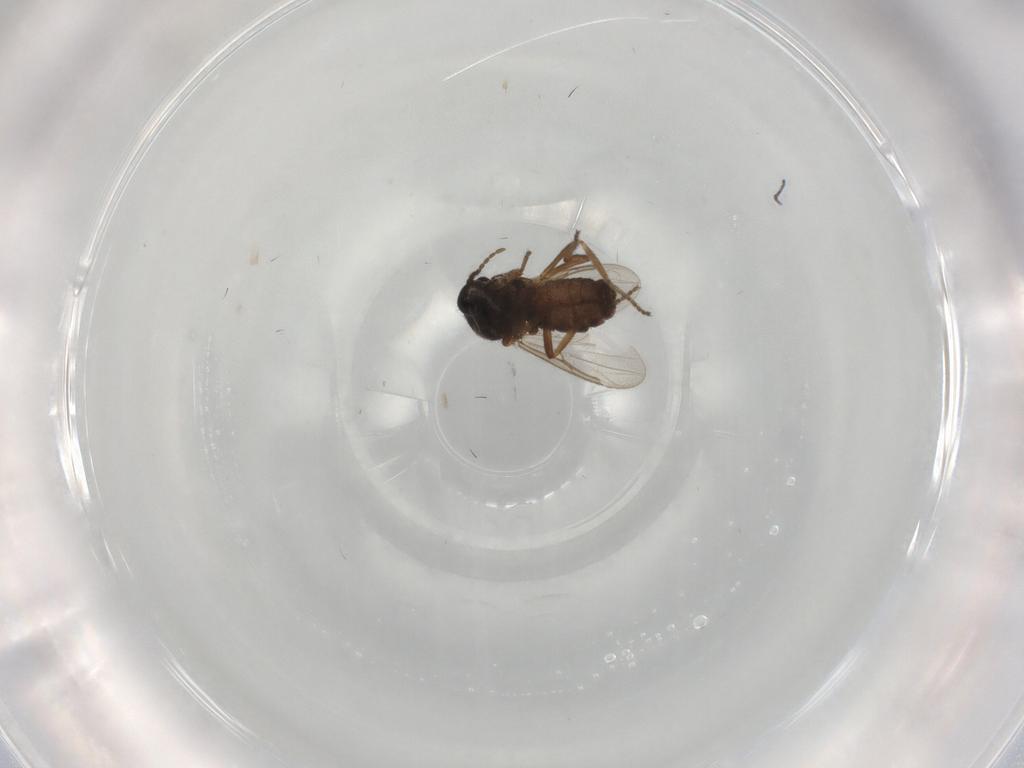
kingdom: Animalia
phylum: Arthropoda
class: Insecta
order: Diptera
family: Ceratopogonidae
